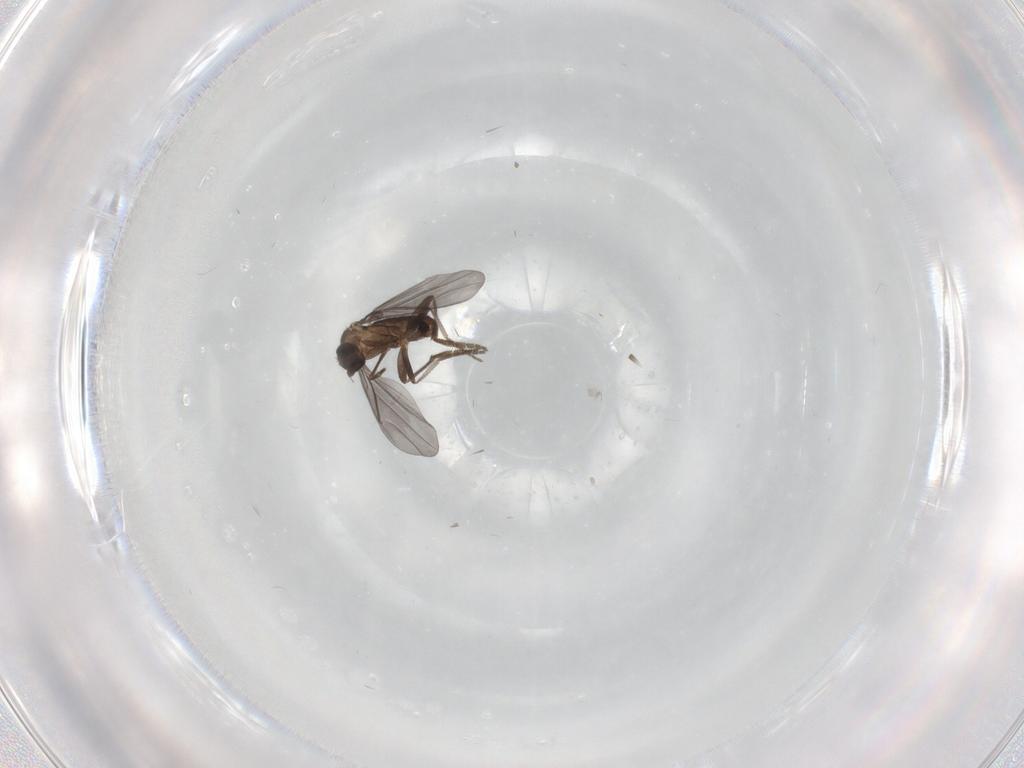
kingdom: Animalia
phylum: Arthropoda
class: Insecta
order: Diptera
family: Phoridae
